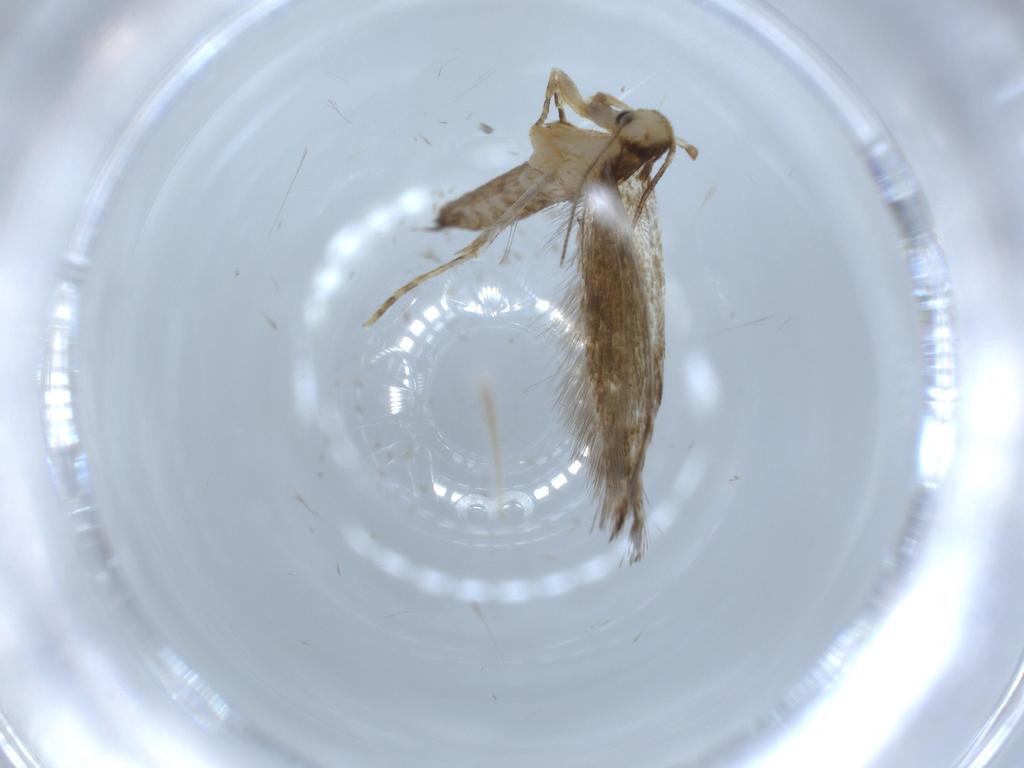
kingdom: Animalia
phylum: Arthropoda
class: Insecta
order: Lepidoptera
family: Tineidae
